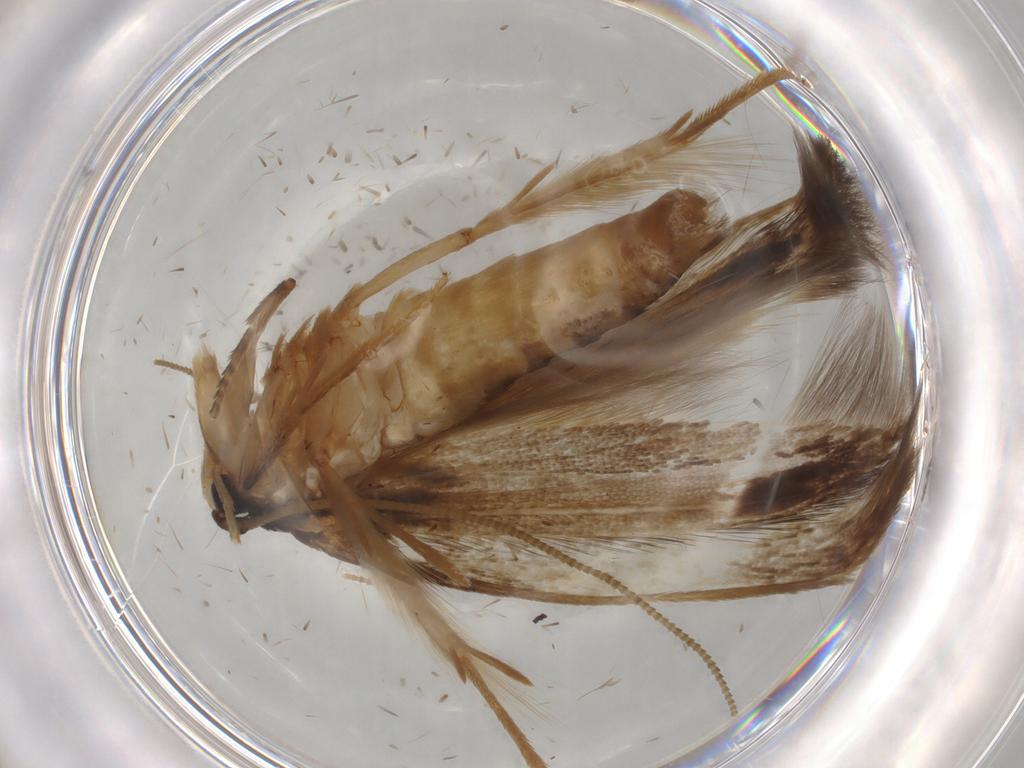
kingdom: Animalia
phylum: Arthropoda
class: Insecta
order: Lepidoptera
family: Tineidae
